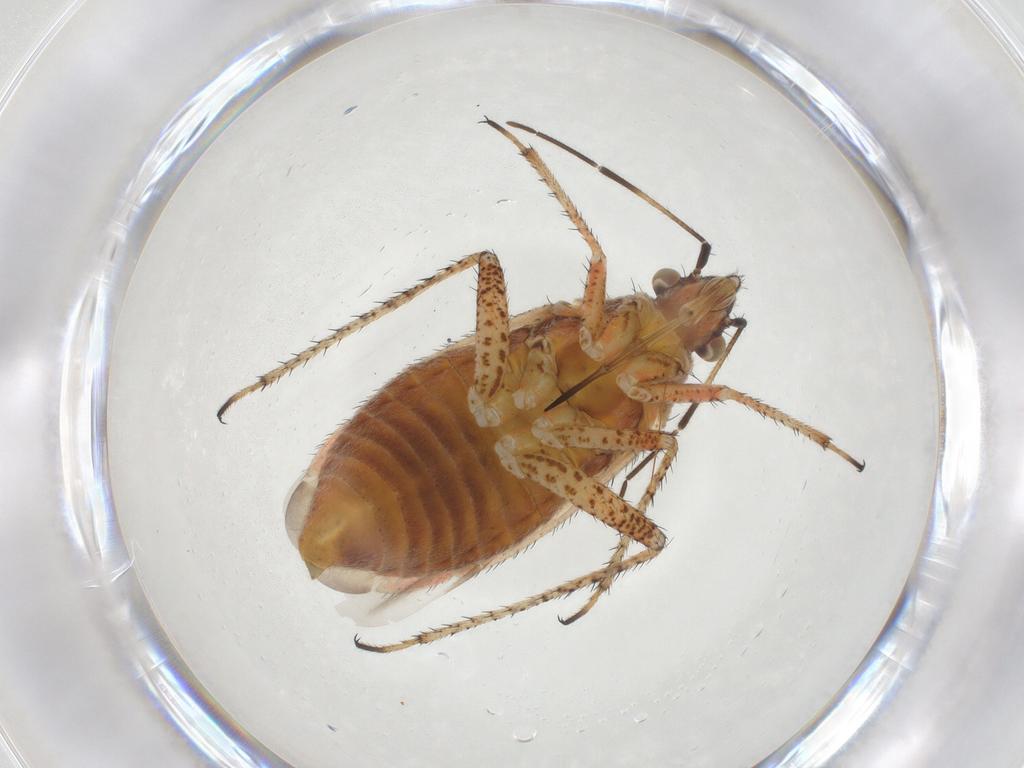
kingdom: Animalia
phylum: Arthropoda
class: Insecta
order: Hemiptera
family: Miridae
